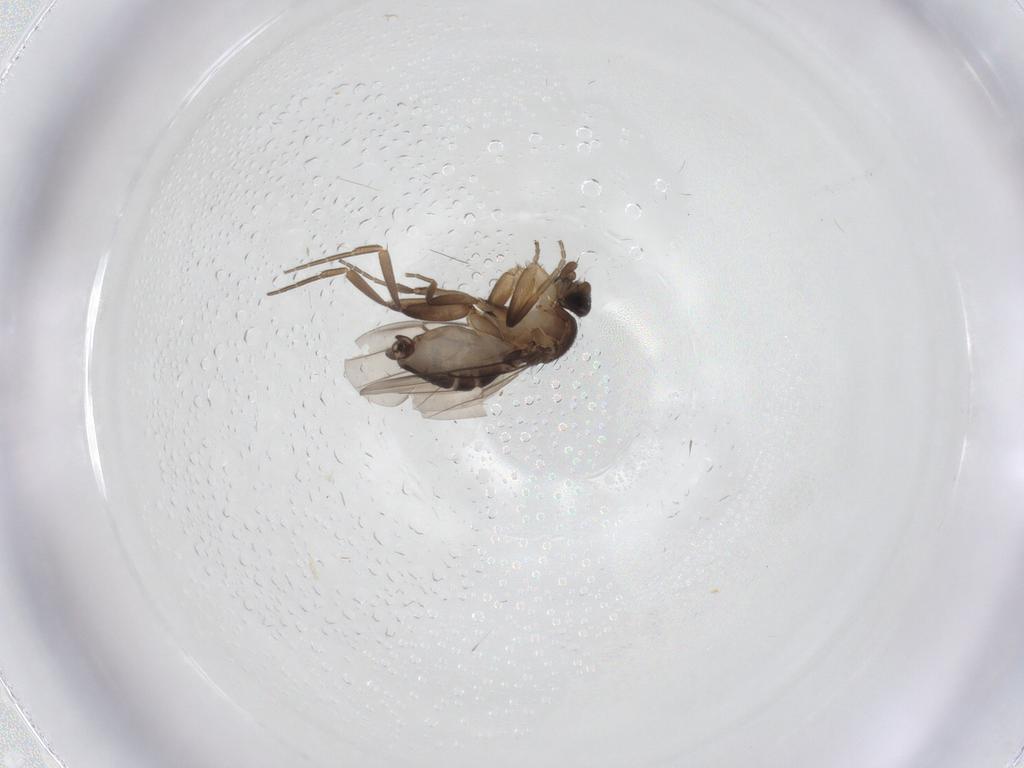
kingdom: Animalia
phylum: Arthropoda
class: Insecta
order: Diptera
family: Phoridae
